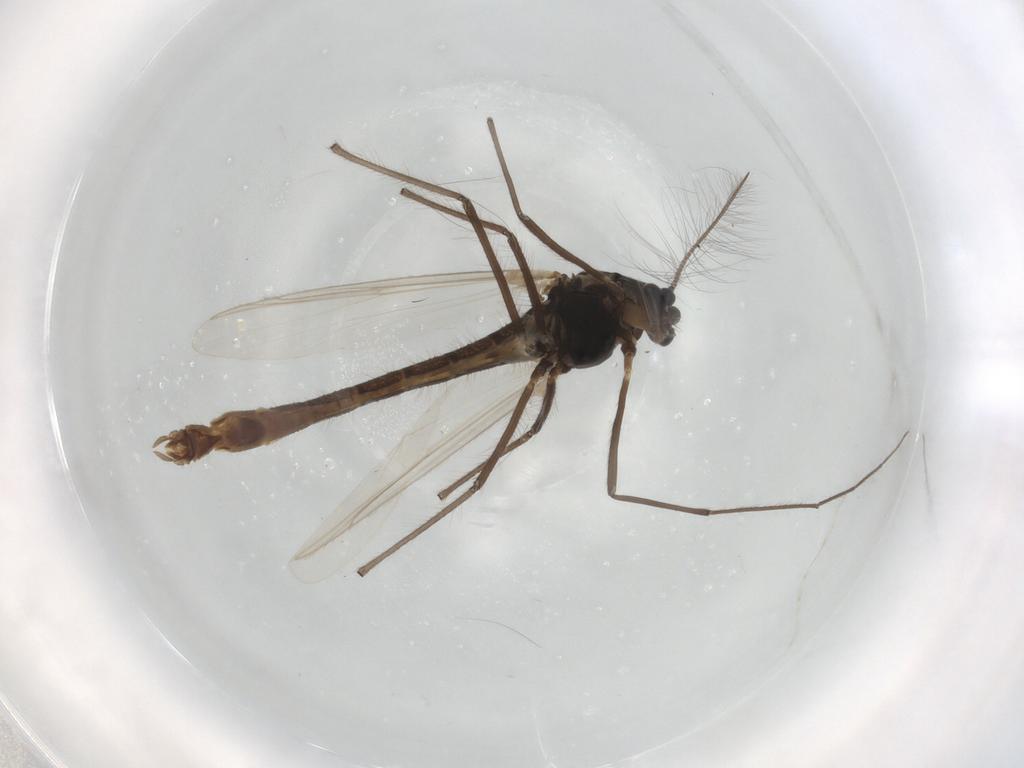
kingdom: Animalia
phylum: Arthropoda
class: Insecta
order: Diptera
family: Chironomidae
